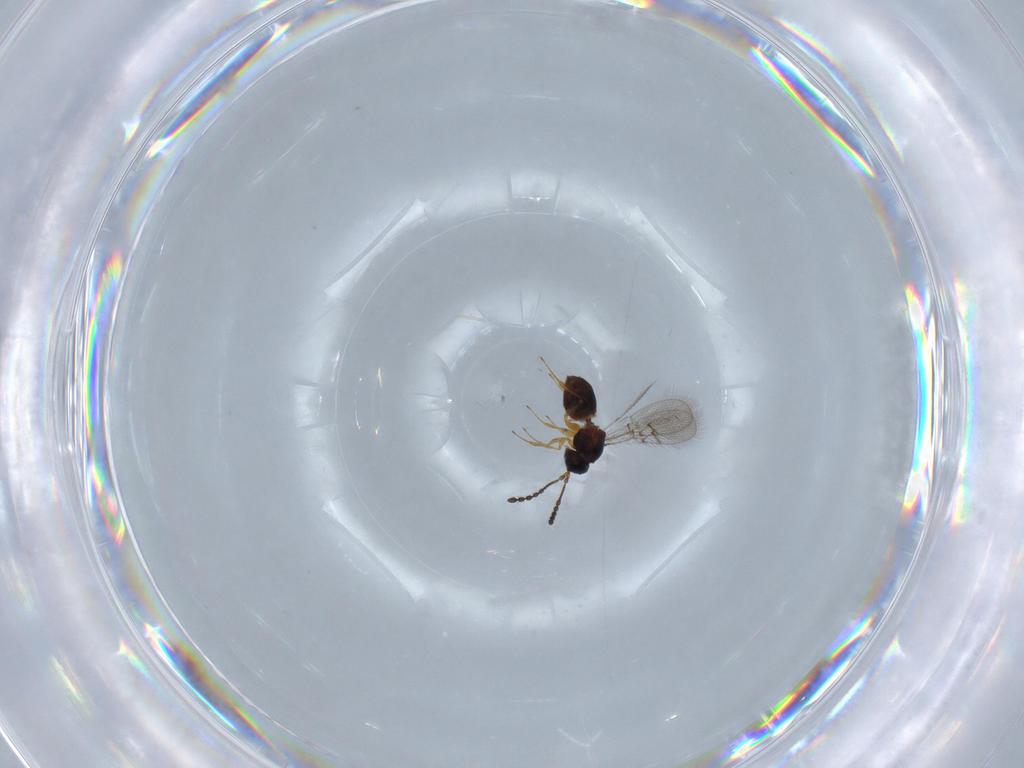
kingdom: Animalia
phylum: Arthropoda
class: Insecta
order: Hymenoptera
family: Figitidae
